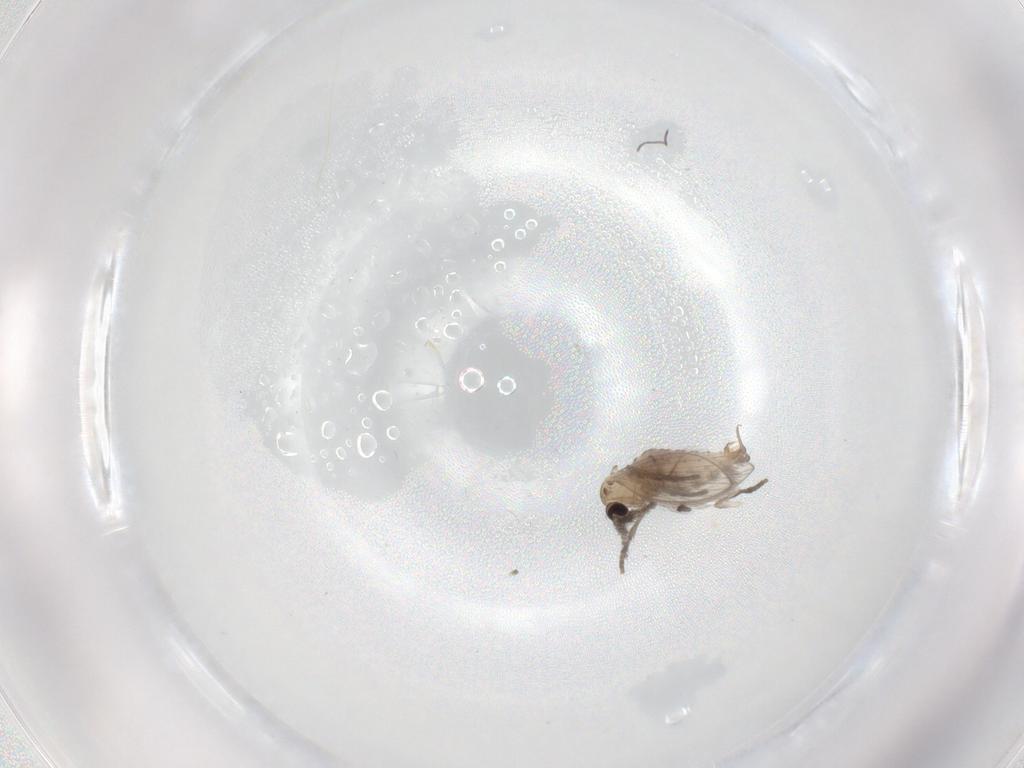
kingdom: Animalia
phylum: Arthropoda
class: Insecta
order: Diptera
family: Psychodidae
